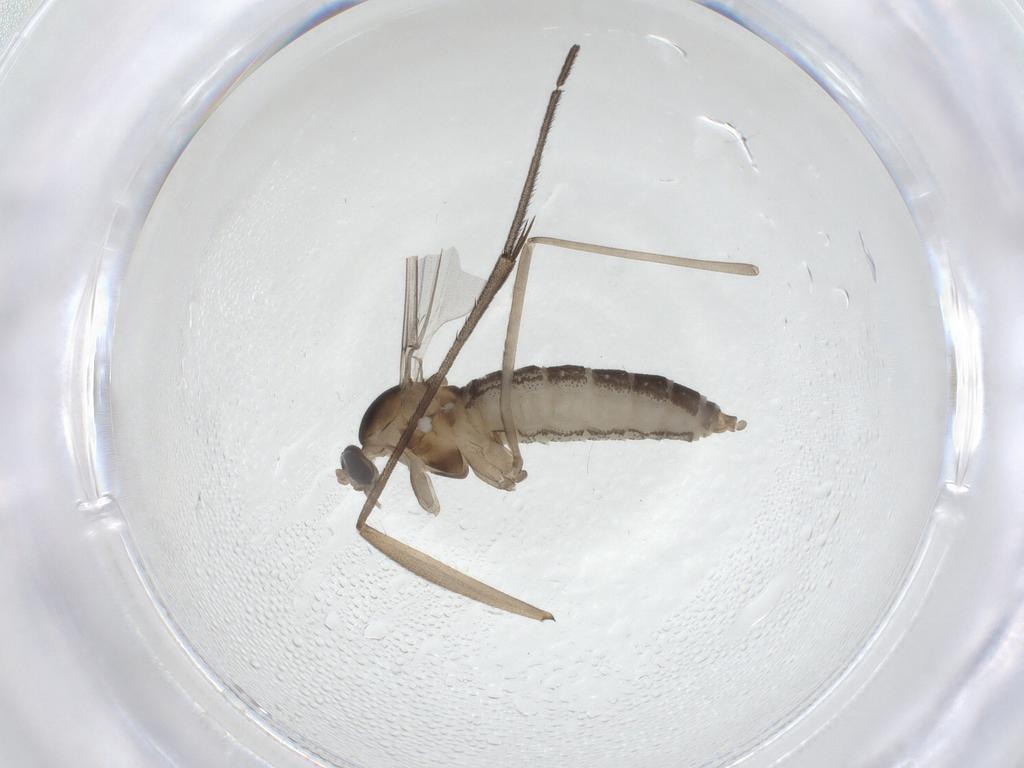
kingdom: Animalia
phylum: Arthropoda
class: Insecta
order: Diptera
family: Cecidomyiidae
